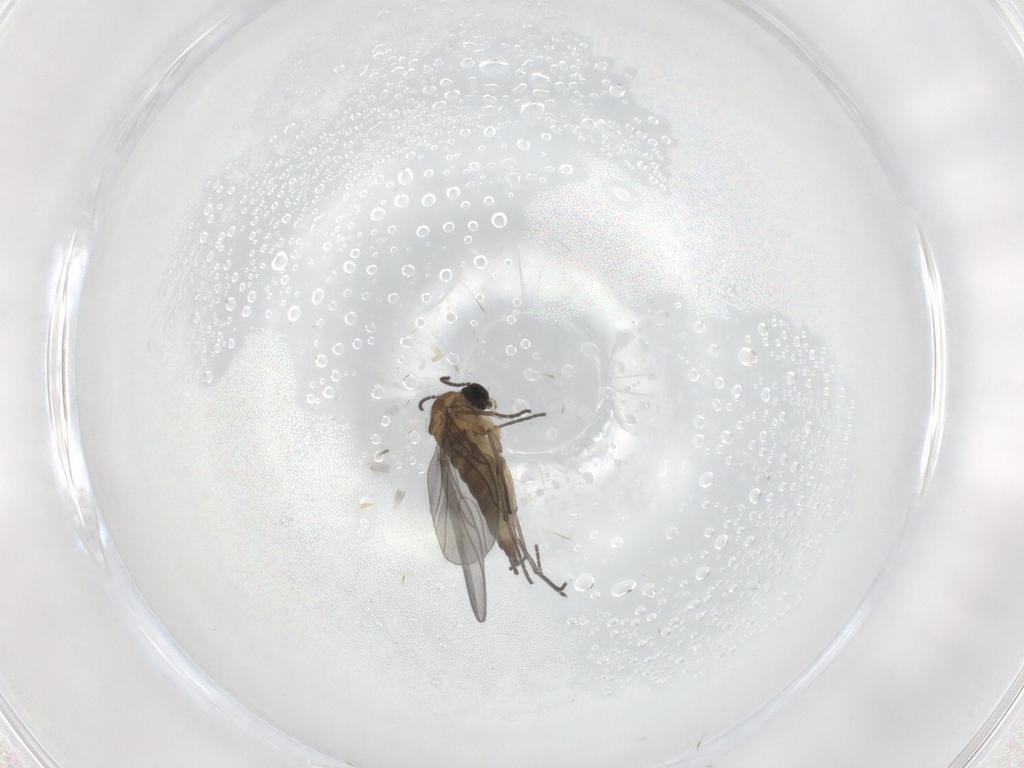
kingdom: Animalia
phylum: Arthropoda
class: Insecta
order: Diptera
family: Sciaridae
